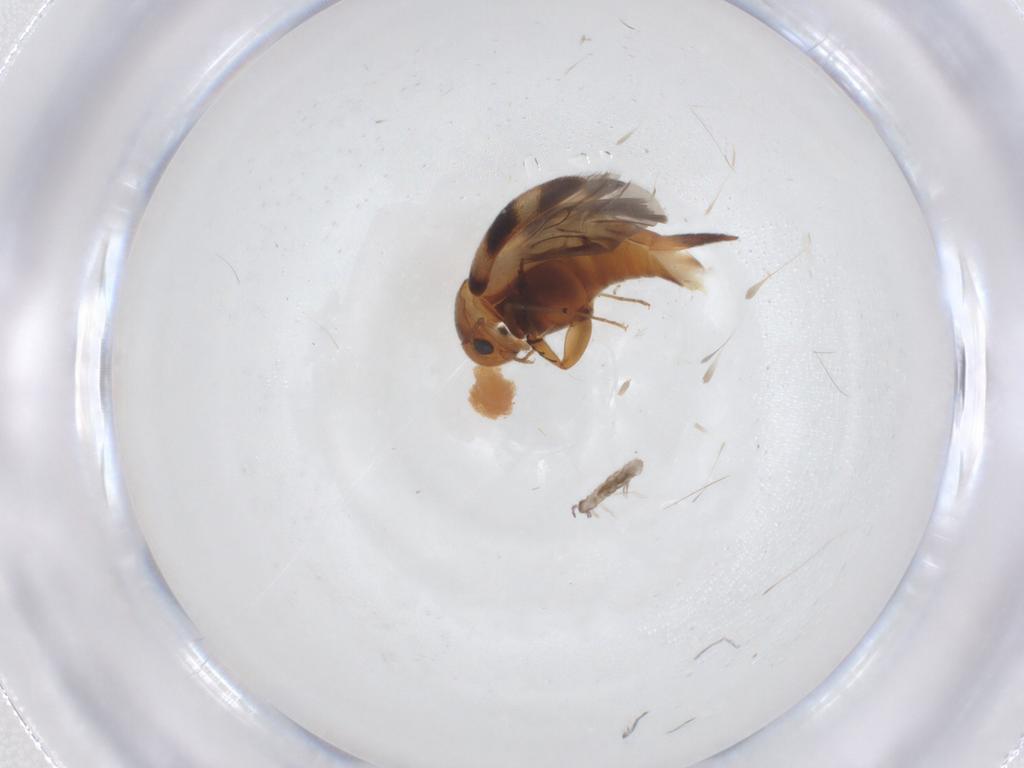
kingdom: Animalia
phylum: Arthropoda
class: Insecta
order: Coleoptera
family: Mordellidae
